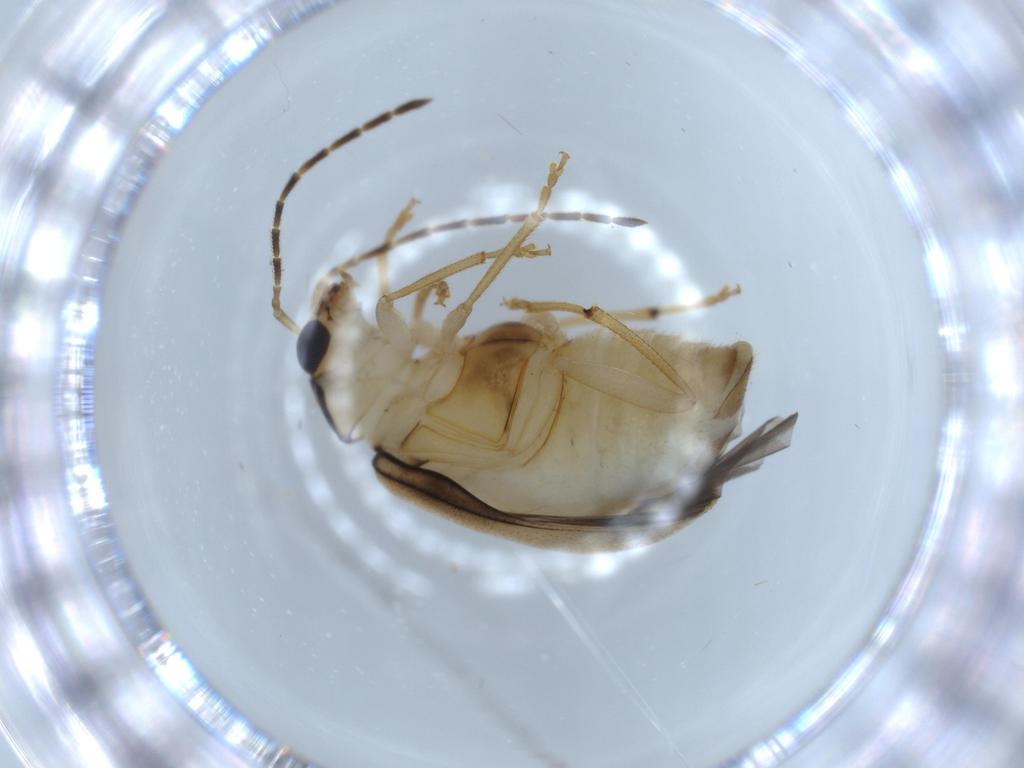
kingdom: Animalia
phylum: Arthropoda
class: Insecta
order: Coleoptera
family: Chrysomelidae
